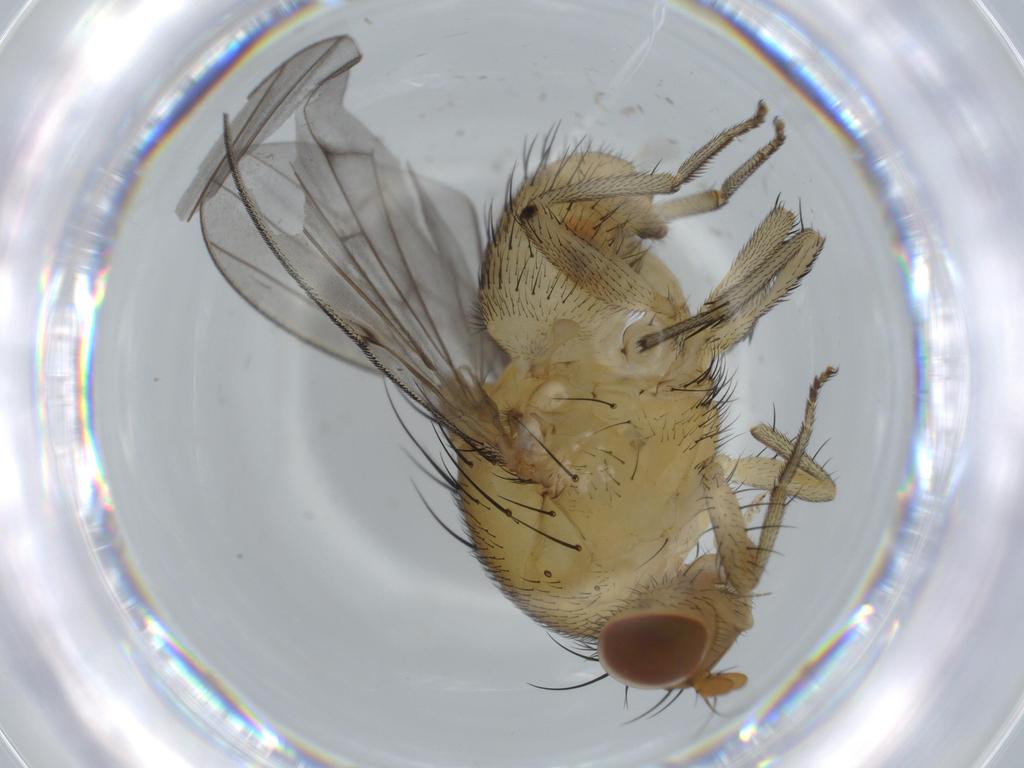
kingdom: Animalia
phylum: Arthropoda
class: Insecta
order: Diptera
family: Lauxaniidae
